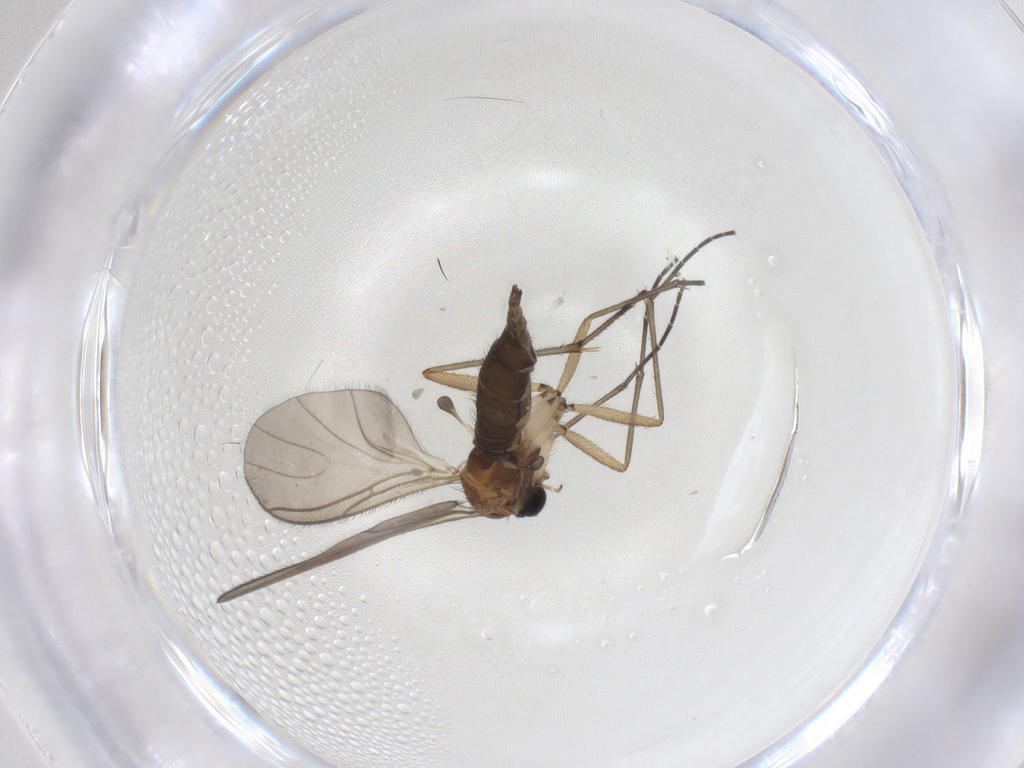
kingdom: Animalia
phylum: Arthropoda
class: Insecta
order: Diptera
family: Sciaridae
